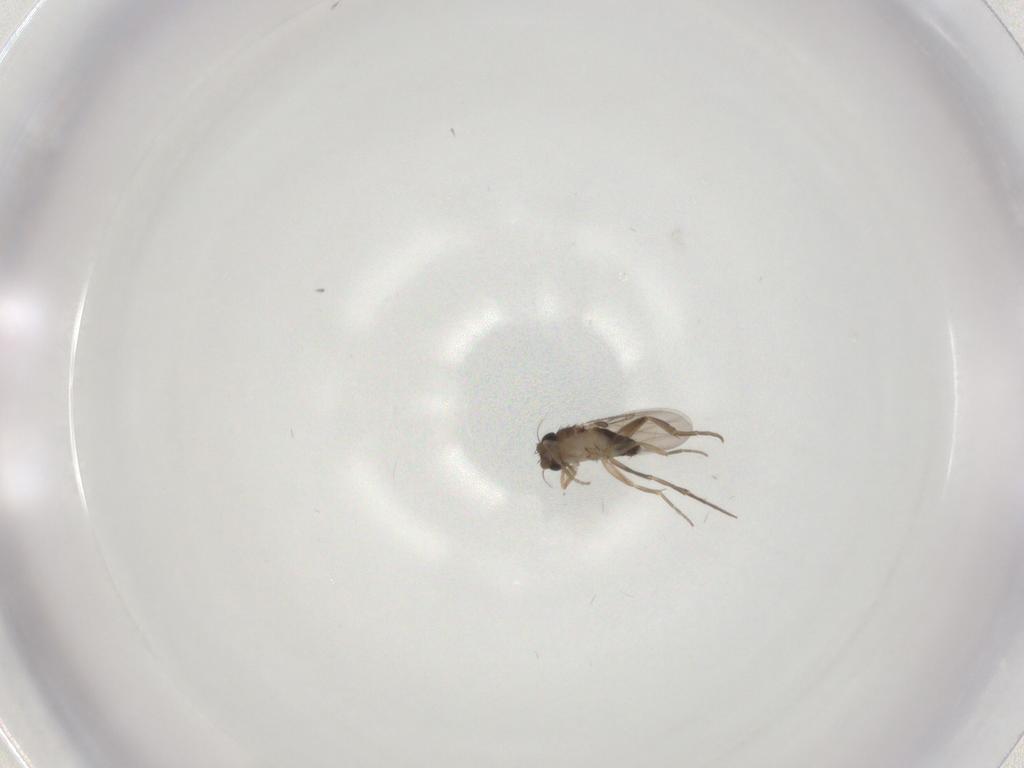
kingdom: Animalia
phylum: Arthropoda
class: Insecta
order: Diptera
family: Phoridae
